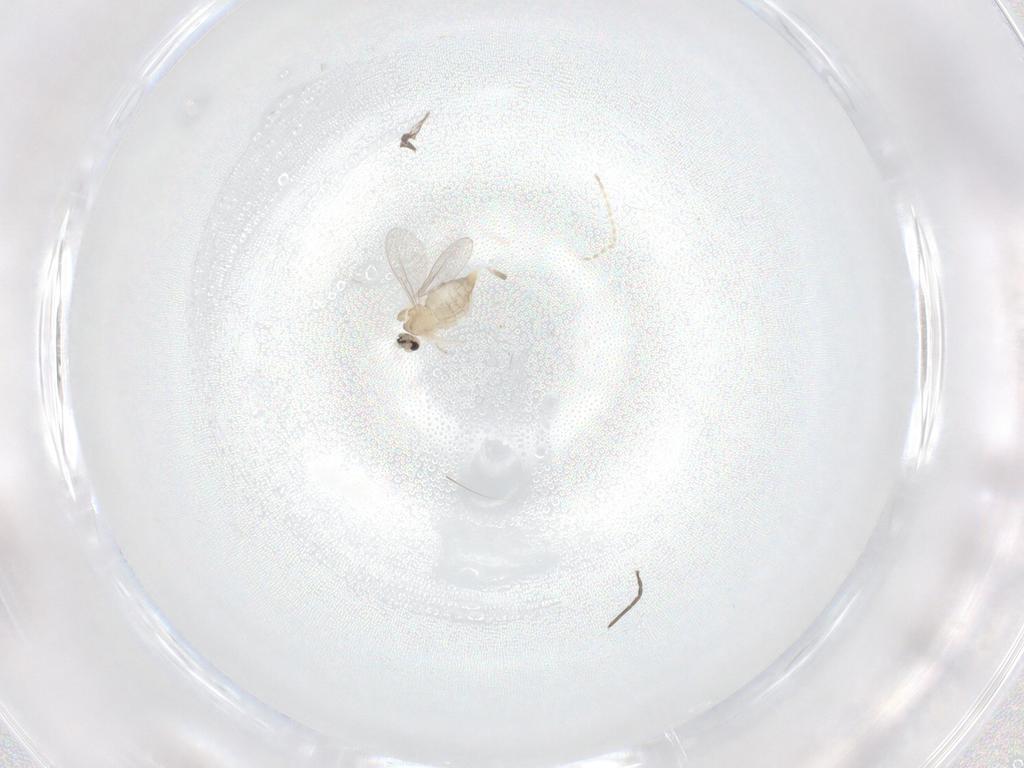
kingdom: Animalia
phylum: Arthropoda
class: Insecta
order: Diptera
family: Cecidomyiidae
